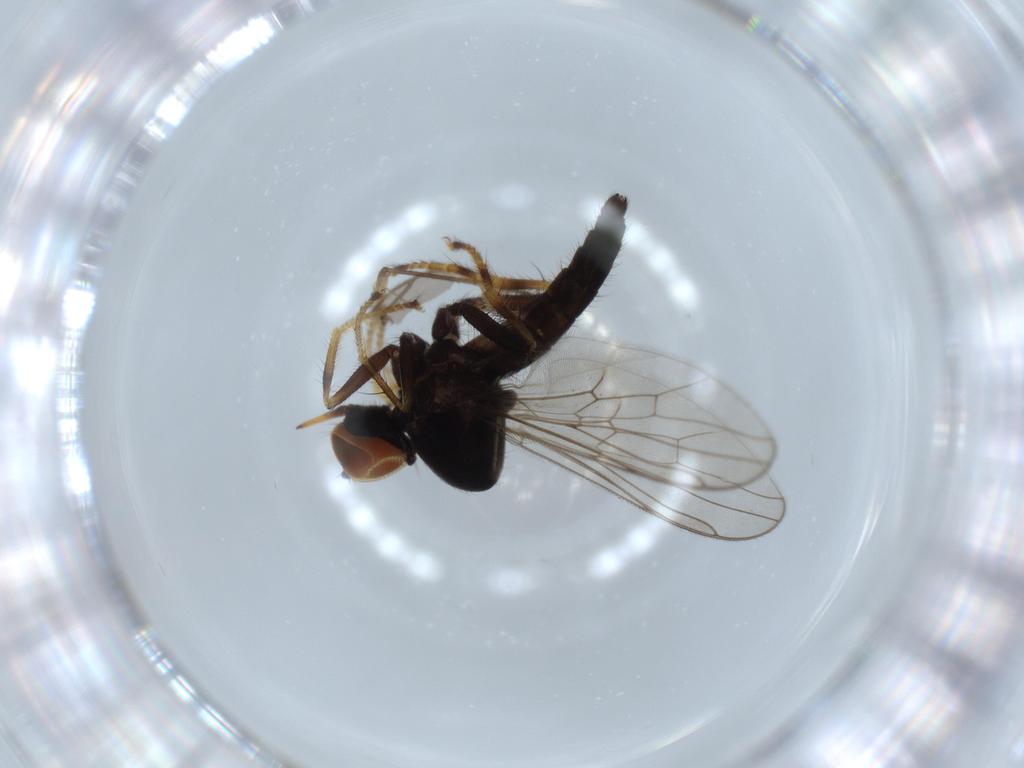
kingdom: Animalia
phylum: Arthropoda
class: Insecta
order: Diptera
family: Hybotidae
